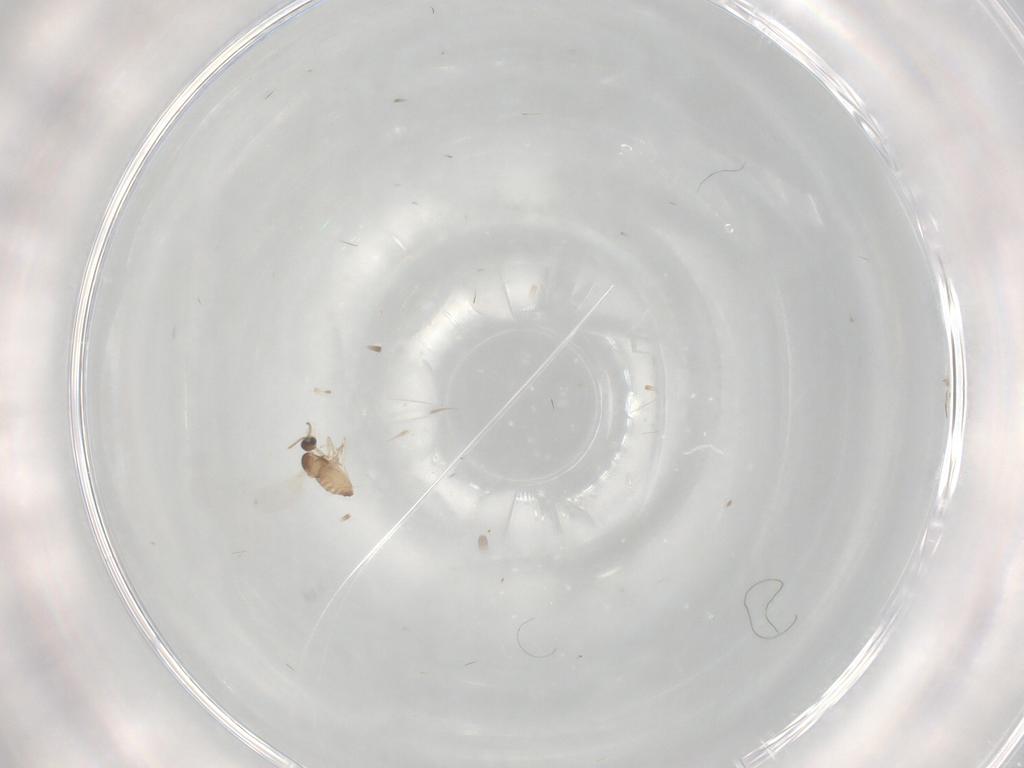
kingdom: Animalia
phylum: Arthropoda
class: Insecta
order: Diptera
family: Cecidomyiidae
